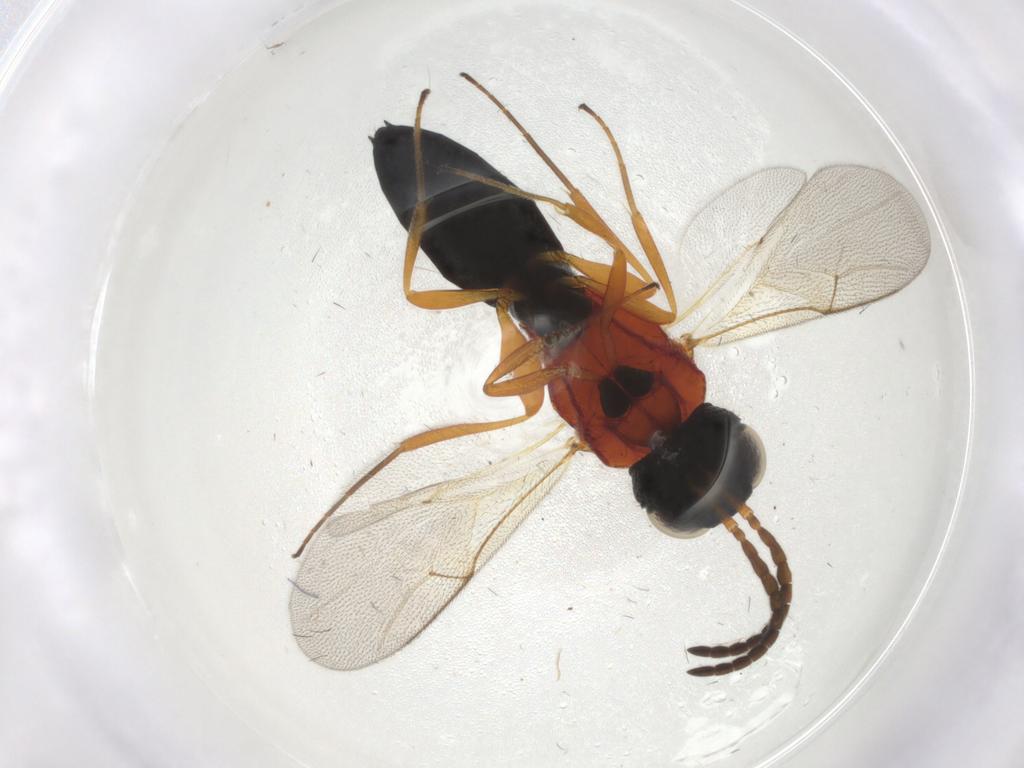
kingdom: Animalia
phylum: Arthropoda
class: Insecta
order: Hymenoptera
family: Scelionidae
